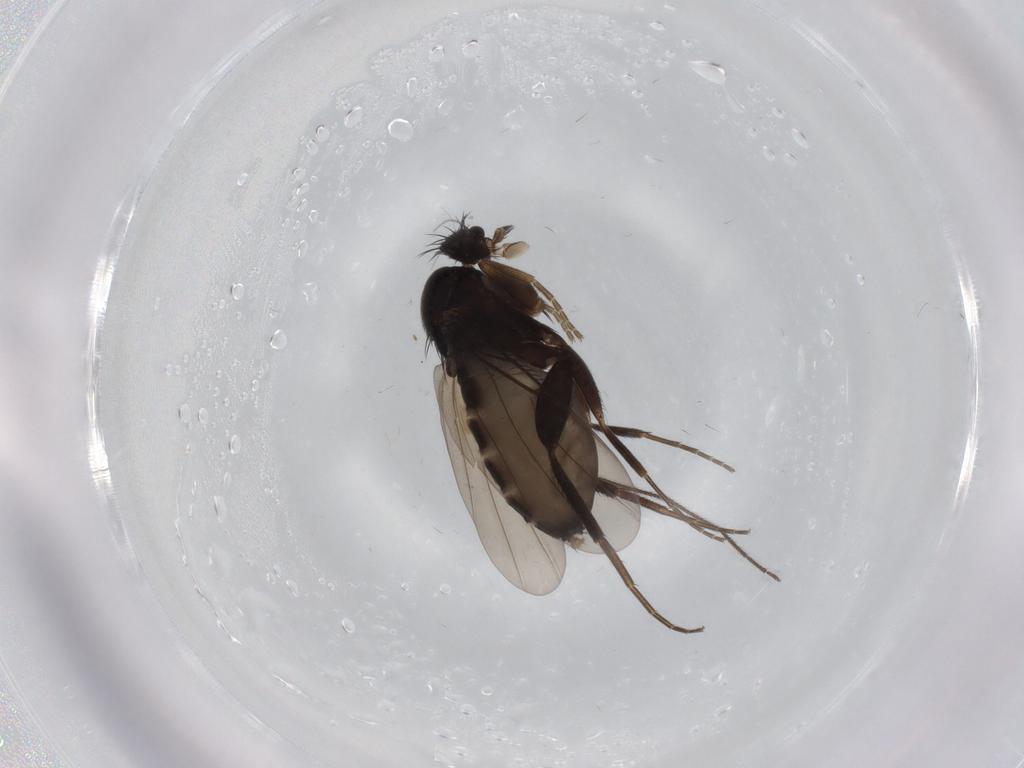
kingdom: Animalia
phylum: Arthropoda
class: Insecta
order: Diptera
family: Phoridae
